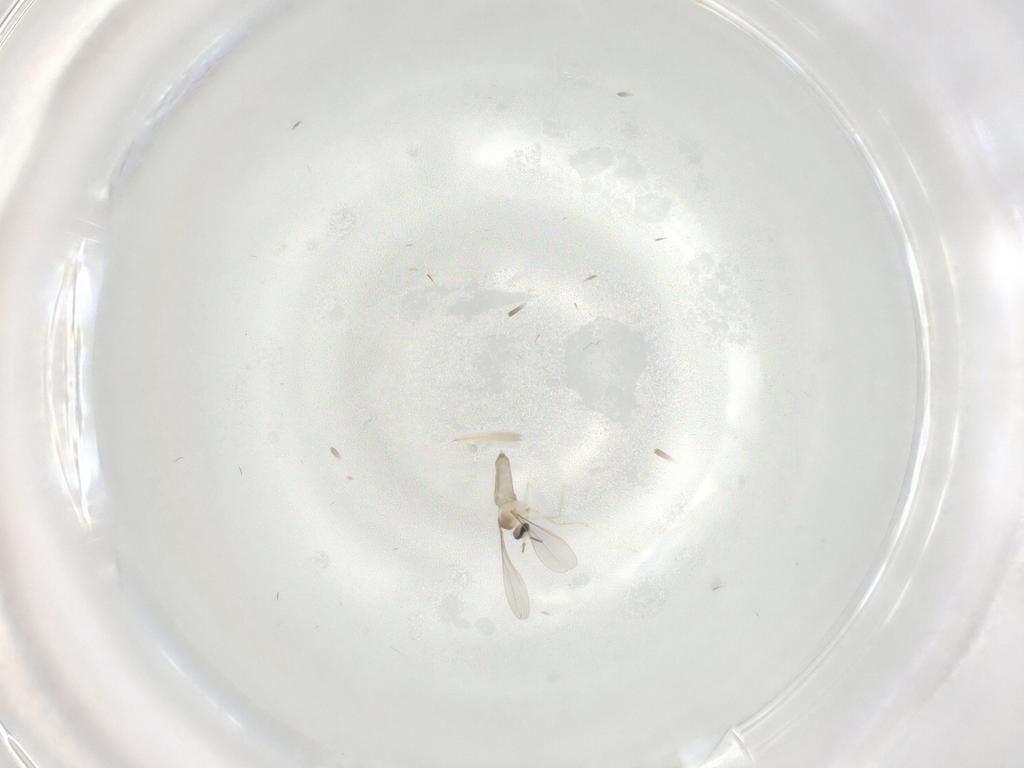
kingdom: Animalia
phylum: Arthropoda
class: Insecta
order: Diptera
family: Cecidomyiidae
